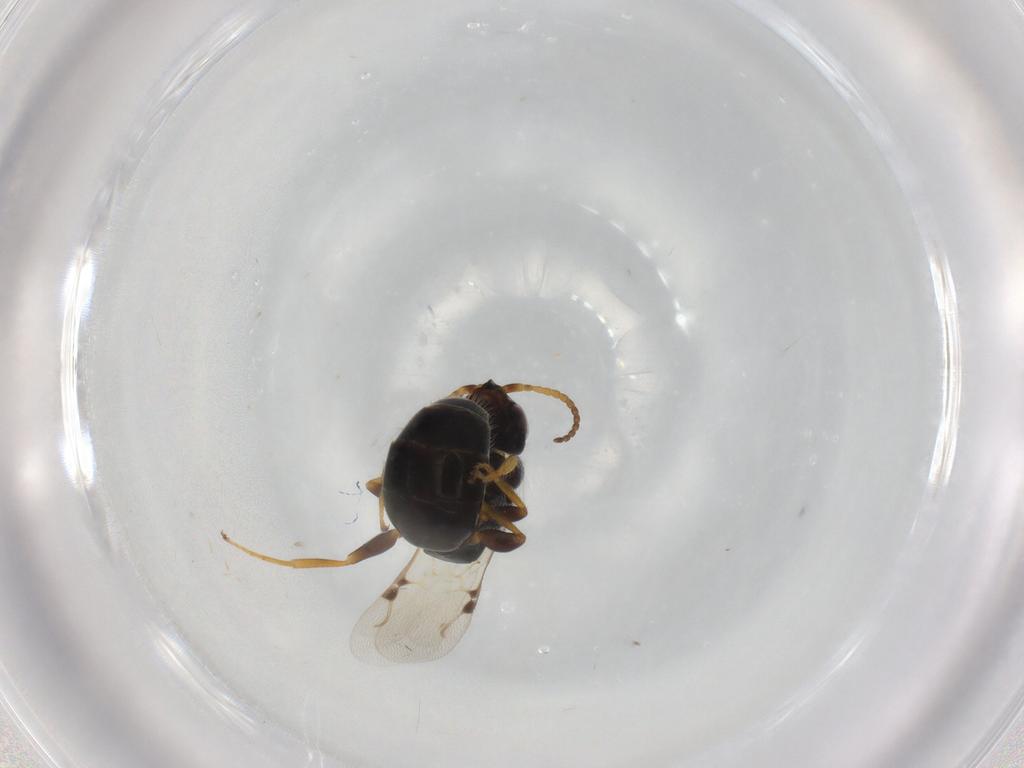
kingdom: Animalia
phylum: Arthropoda
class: Insecta
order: Hymenoptera
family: Bethylidae
